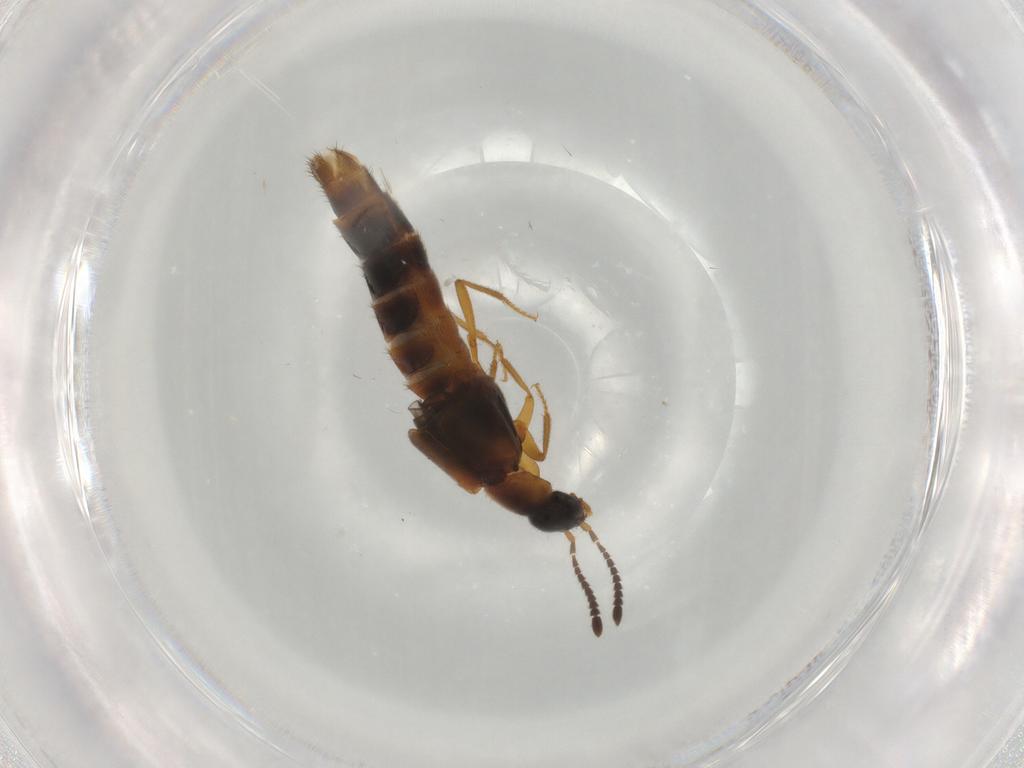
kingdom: Animalia
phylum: Arthropoda
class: Insecta
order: Coleoptera
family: Staphylinidae
